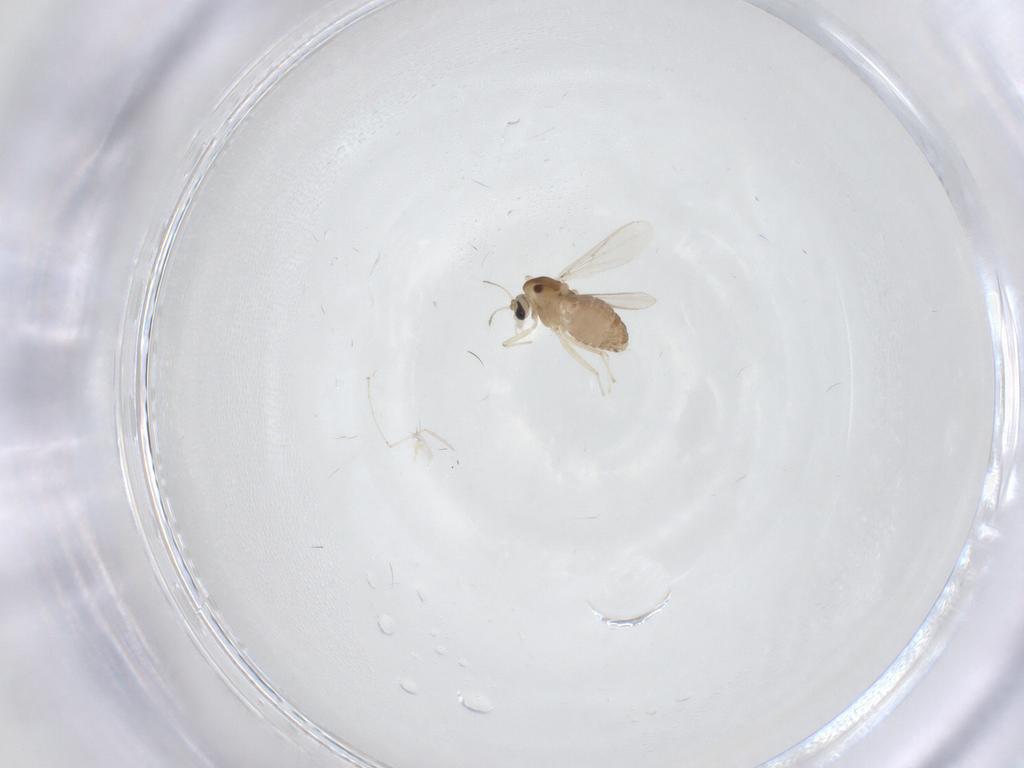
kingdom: Animalia
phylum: Arthropoda
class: Insecta
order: Diptera
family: Chironomidae
